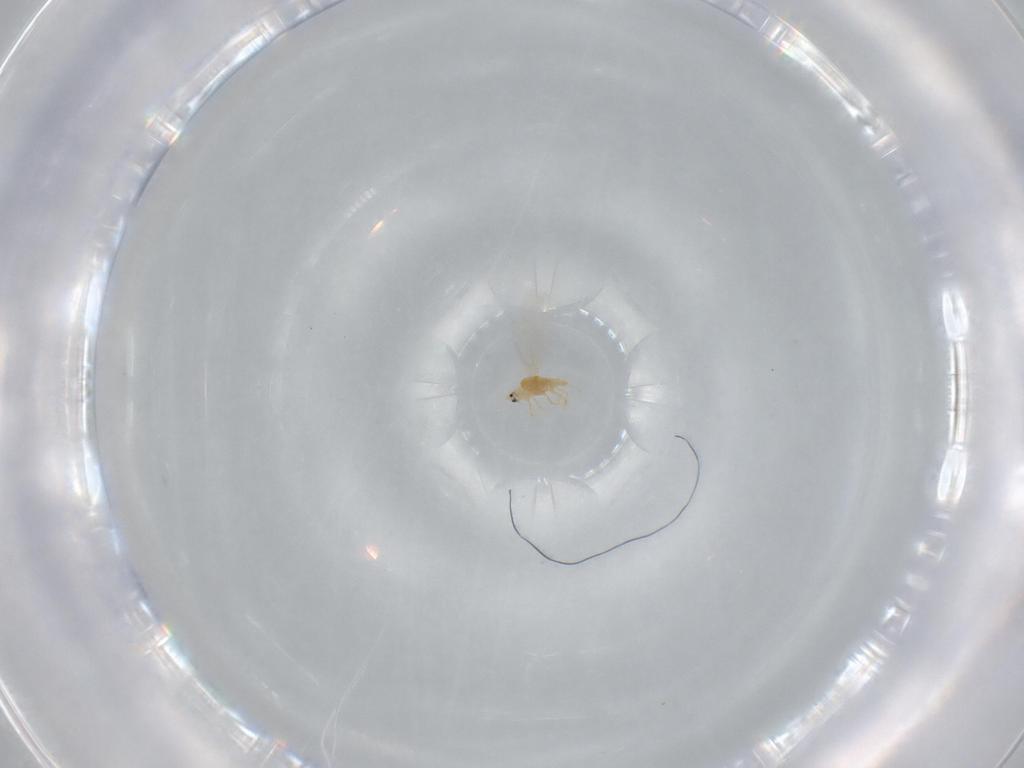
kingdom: Animalia
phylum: Arthropoda
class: Insecta
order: Hemiptera
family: Diaspididae
